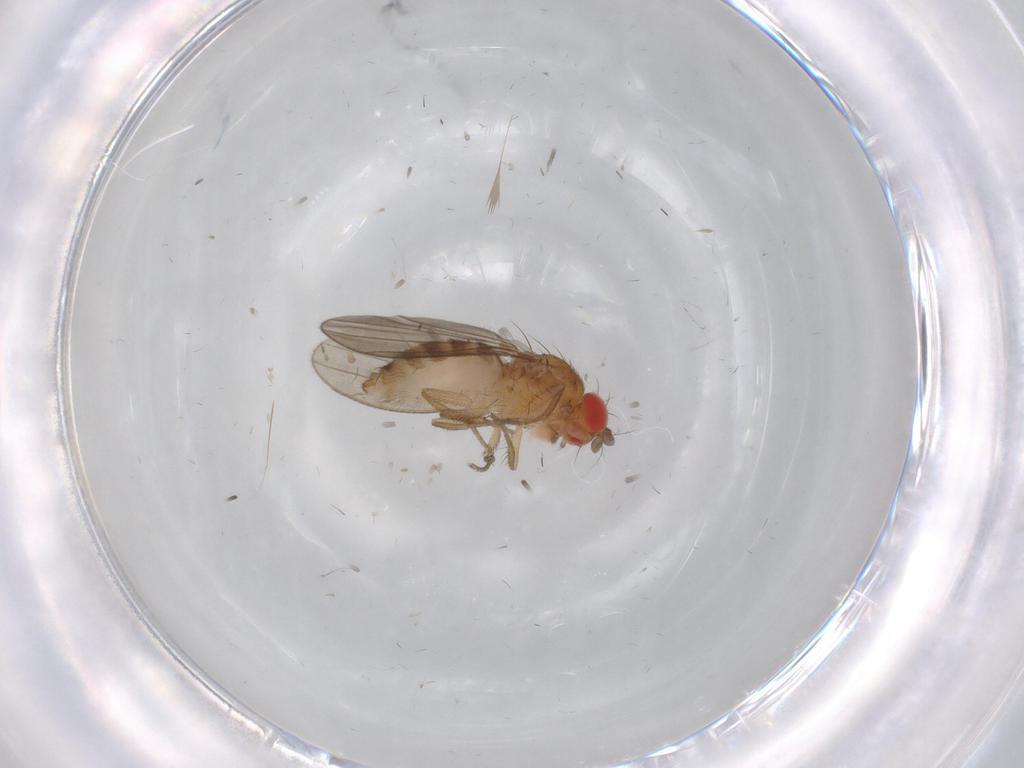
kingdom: Animalia
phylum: Arthropoda
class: Insecta
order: Diptera
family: Drosophilidae
